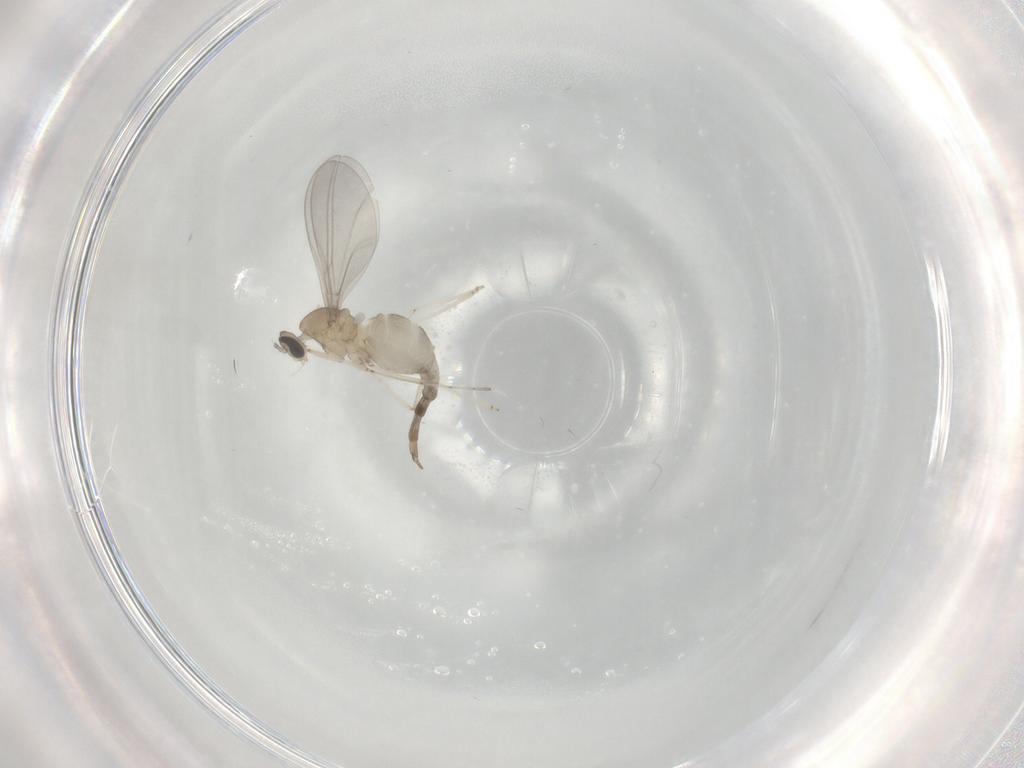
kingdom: Animalia
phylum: Arthropoda
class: Insecta
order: Diptera
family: Cecidomyiidae
